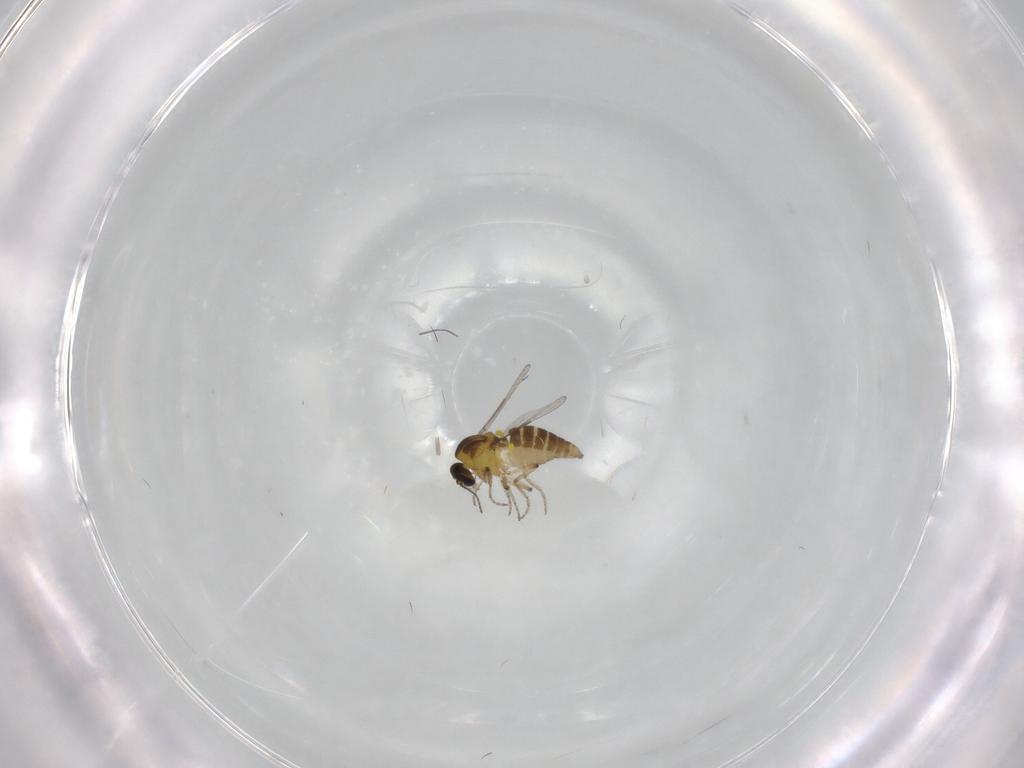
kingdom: Animalia
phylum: Arthropoda
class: Insecta
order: Diptera
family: Ceratopogonidae
